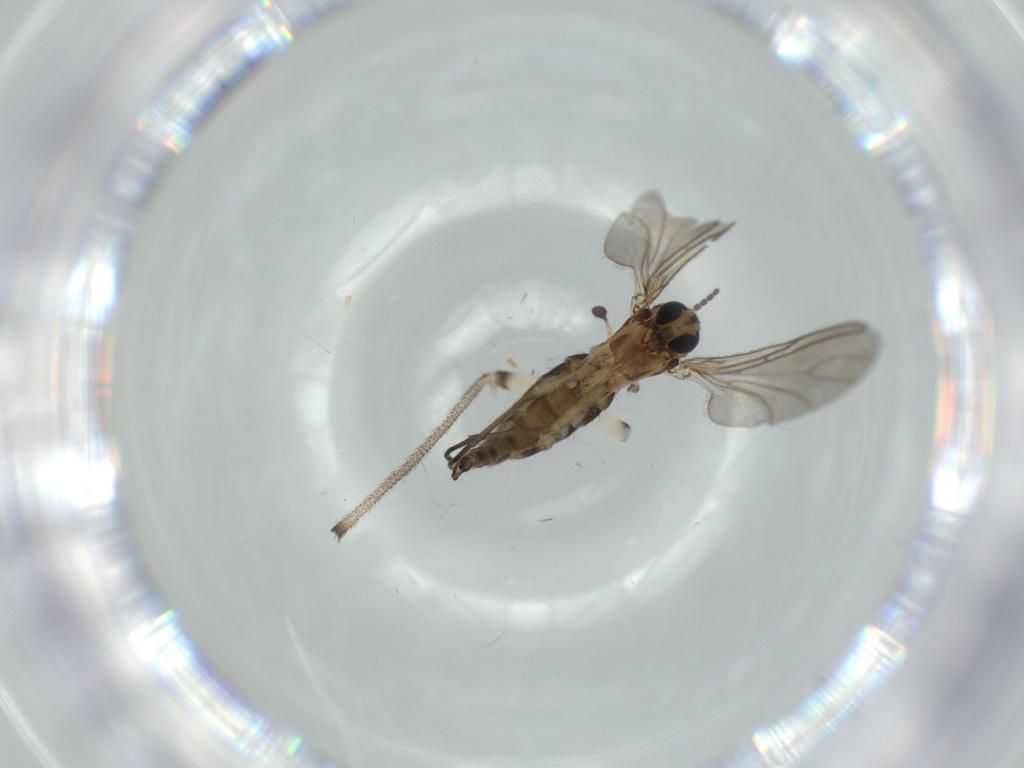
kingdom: Animalia
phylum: Arthropoda
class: Insecta
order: Diptera
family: Sciaridae
